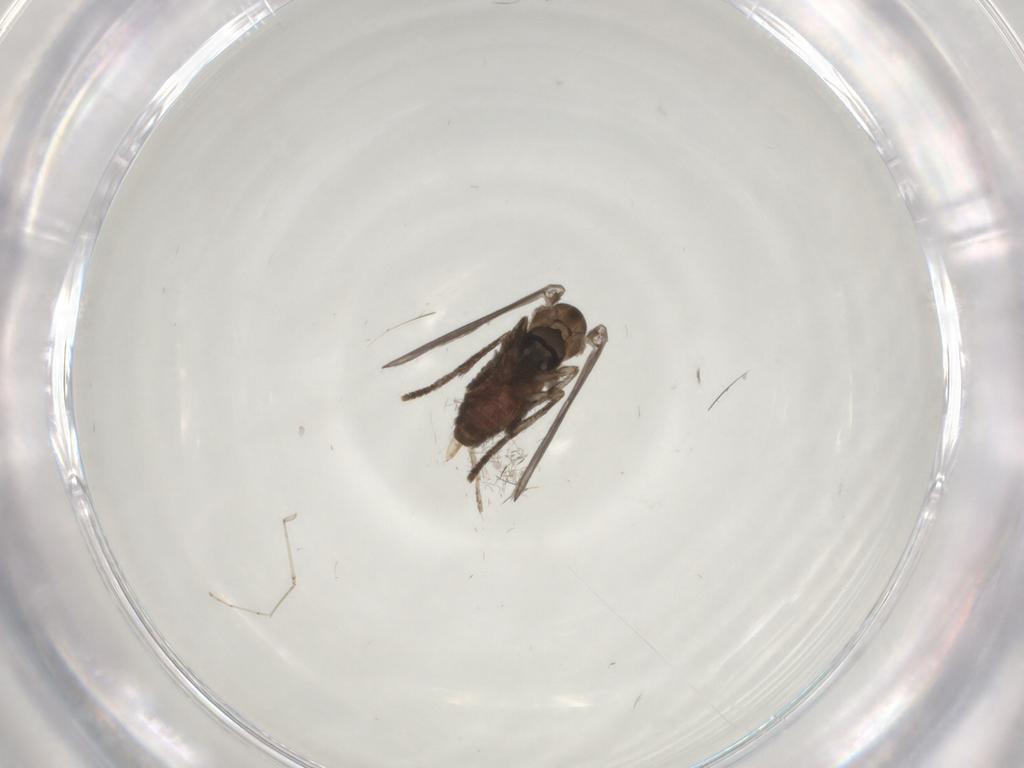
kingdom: Animalia
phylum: Arthropoda
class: Insecta
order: Diptera
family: Psychodidae
